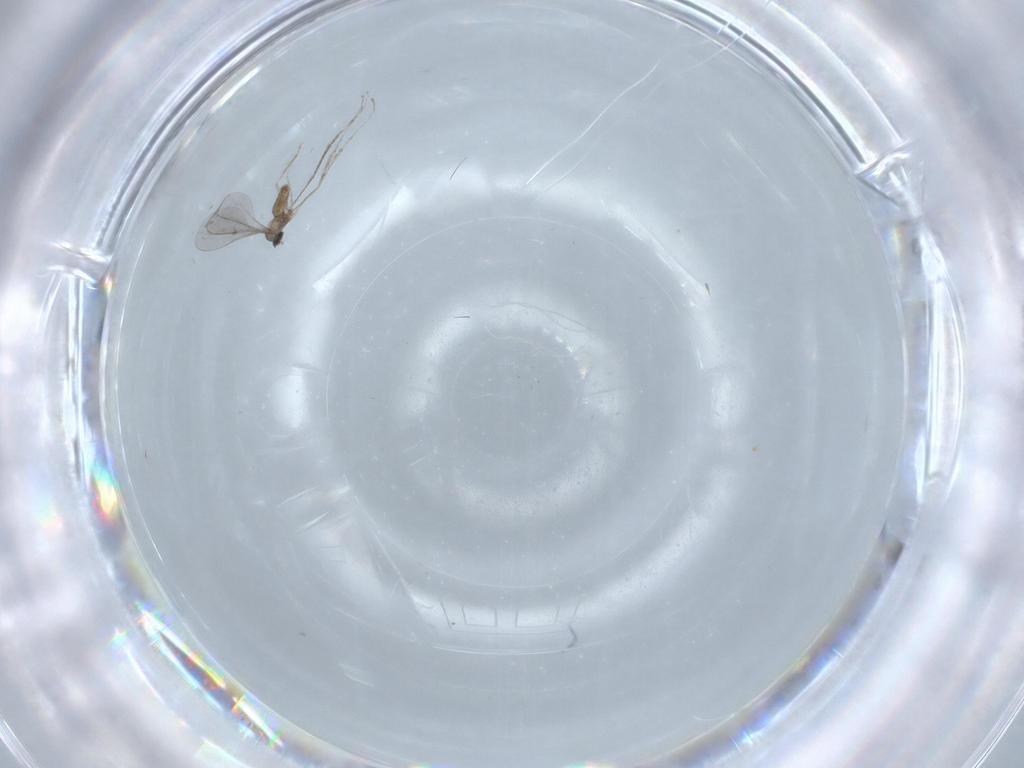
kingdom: Animalia
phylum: Arthropoda
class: Insecta
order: Diptera
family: Cecidomyiidae
